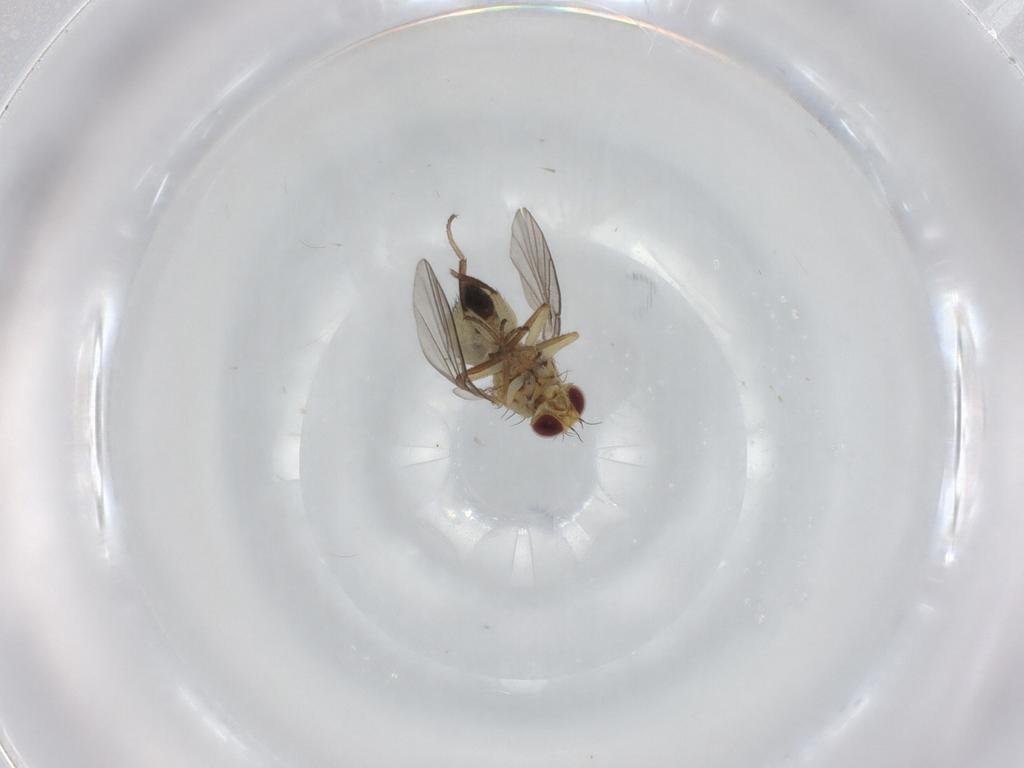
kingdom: Animalia
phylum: Arthropoda
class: Insecta
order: Diptera
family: Agromyzidae
